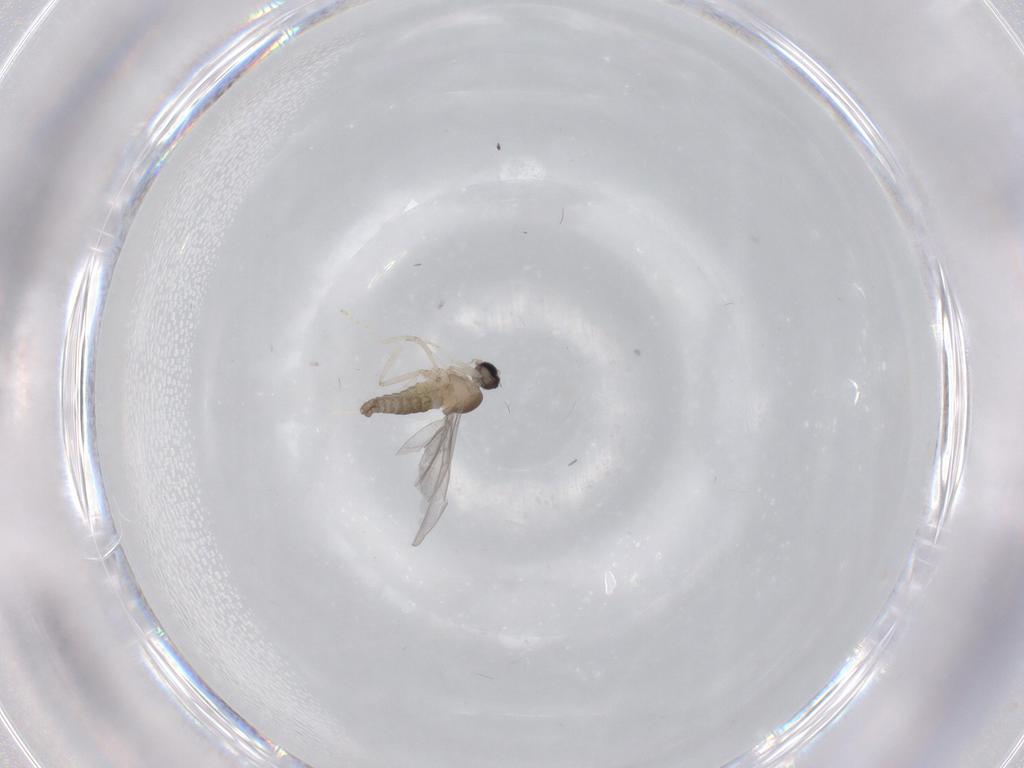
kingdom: Animalia
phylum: Arthropoda
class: Insecta
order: Diptera
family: Cecidomyiidae
